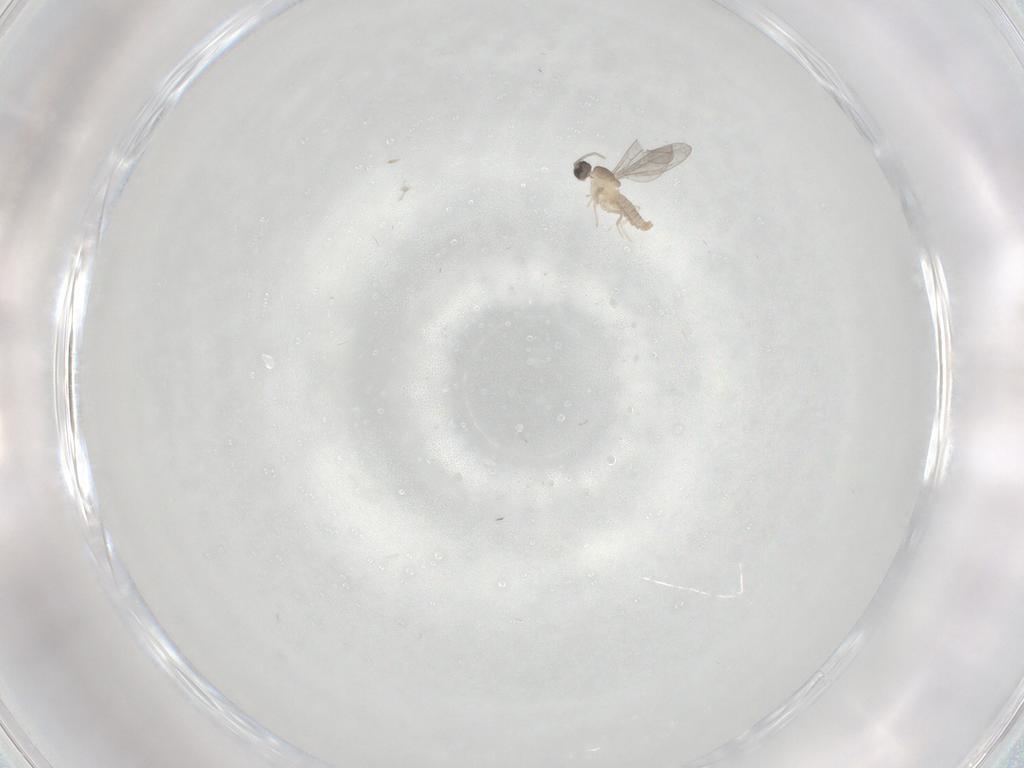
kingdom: Animalia
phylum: Arthropoda
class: Insecta
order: Diptera
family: Cecidomyiidae
